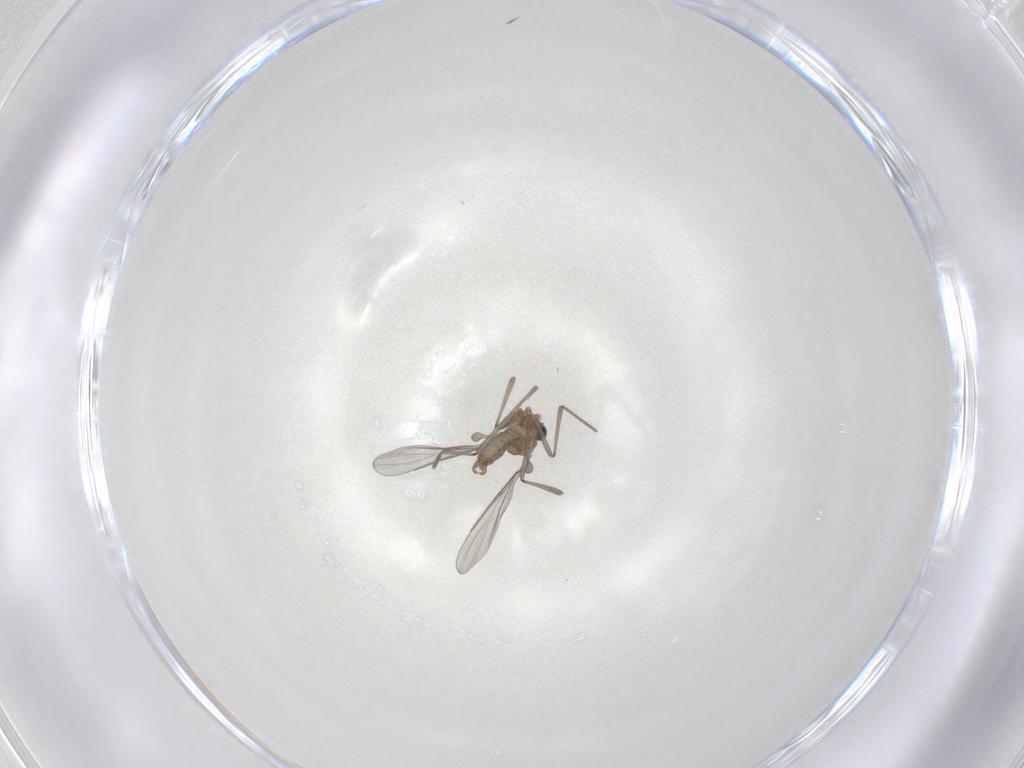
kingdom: Animalia
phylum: Arthropoda
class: Insecta
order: Diptera
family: Cecidomyiidae
